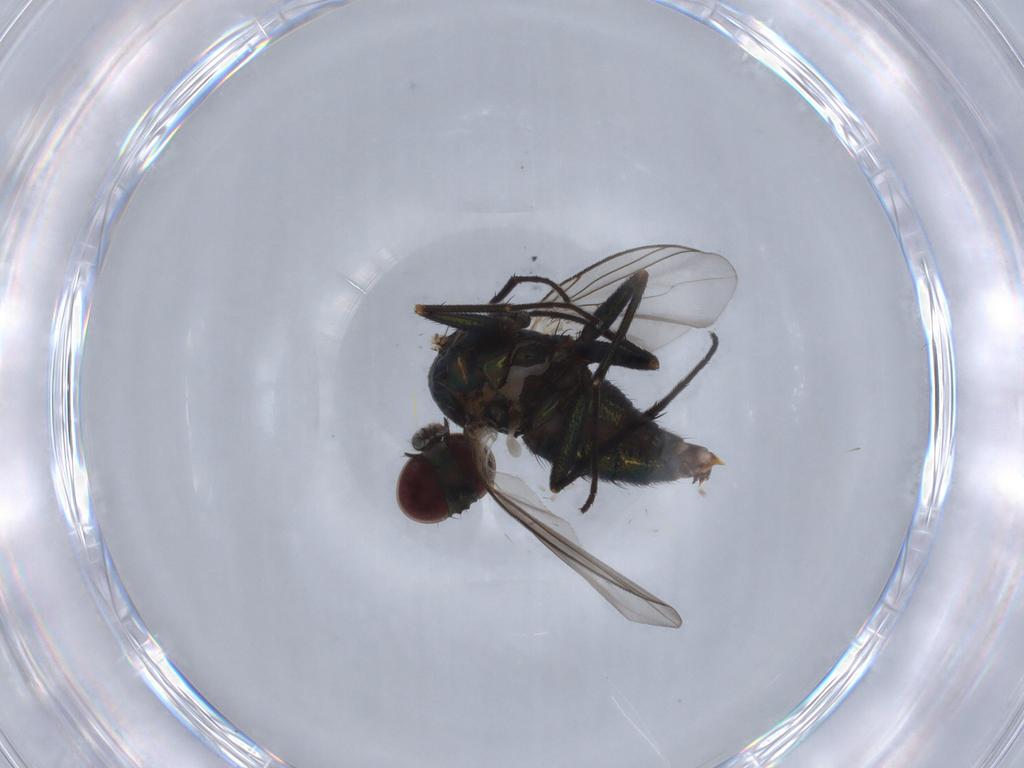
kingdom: Animalia
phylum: Arthropoda
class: Insecta
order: Diptera
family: Dolichopodidae
